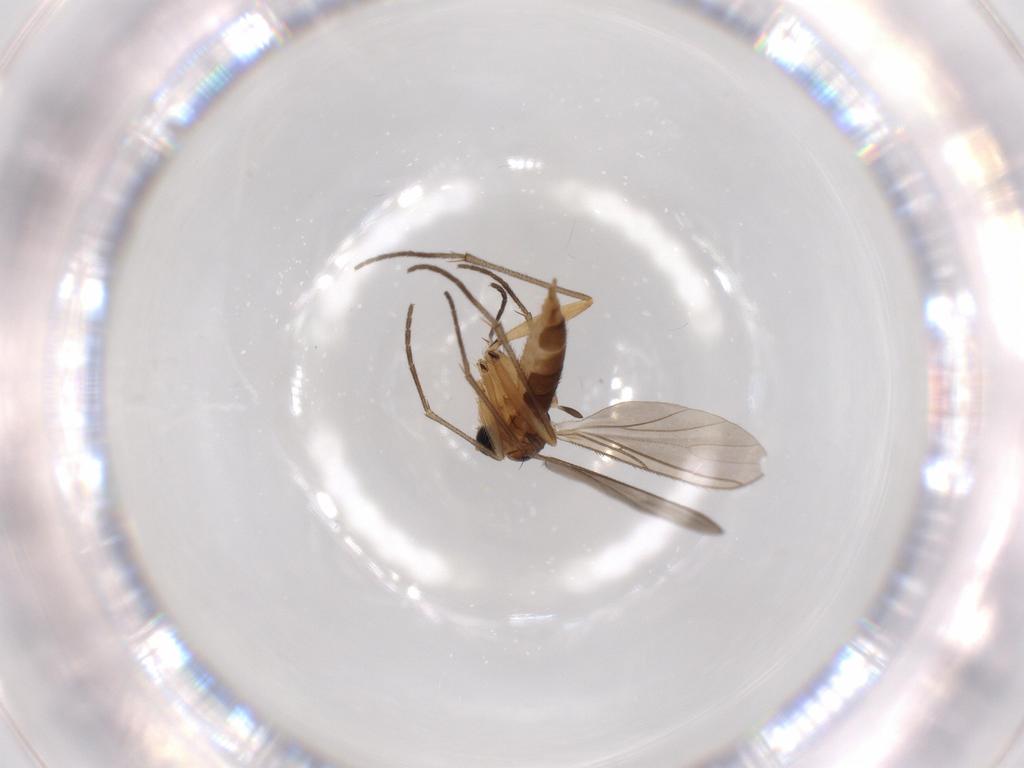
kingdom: Animalia
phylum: Arthropoda
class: Insecta
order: Diptera
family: Sciaridae
